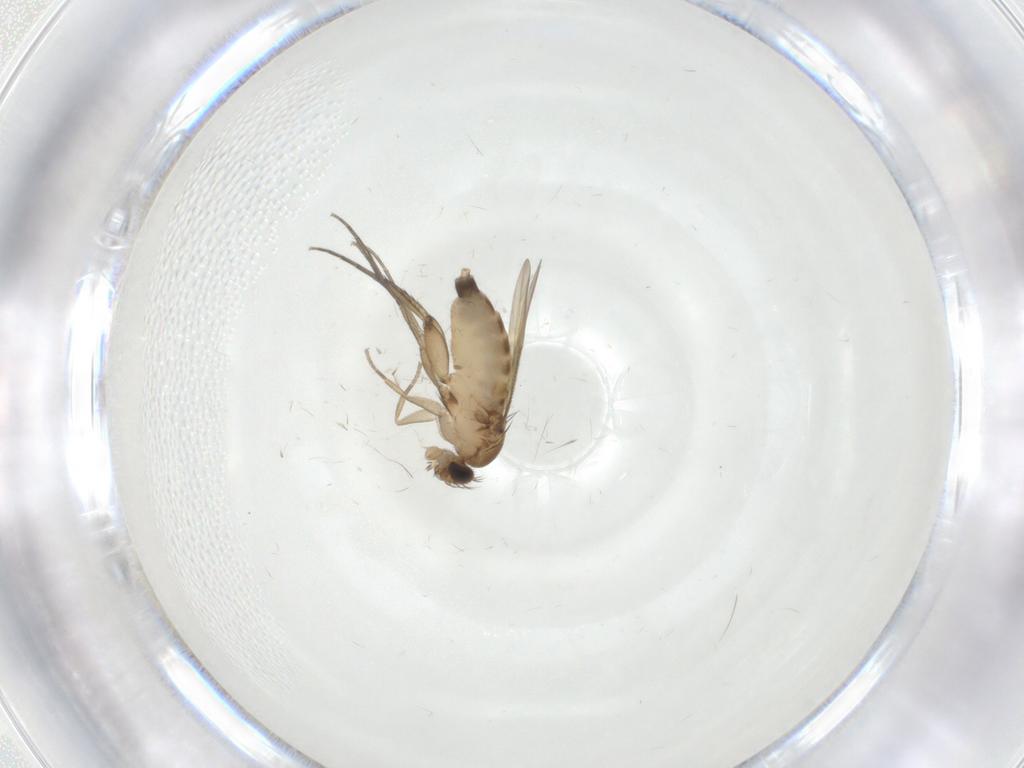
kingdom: Animalia
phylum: Arthropoda
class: Insecta
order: Diptera
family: Phoridae
